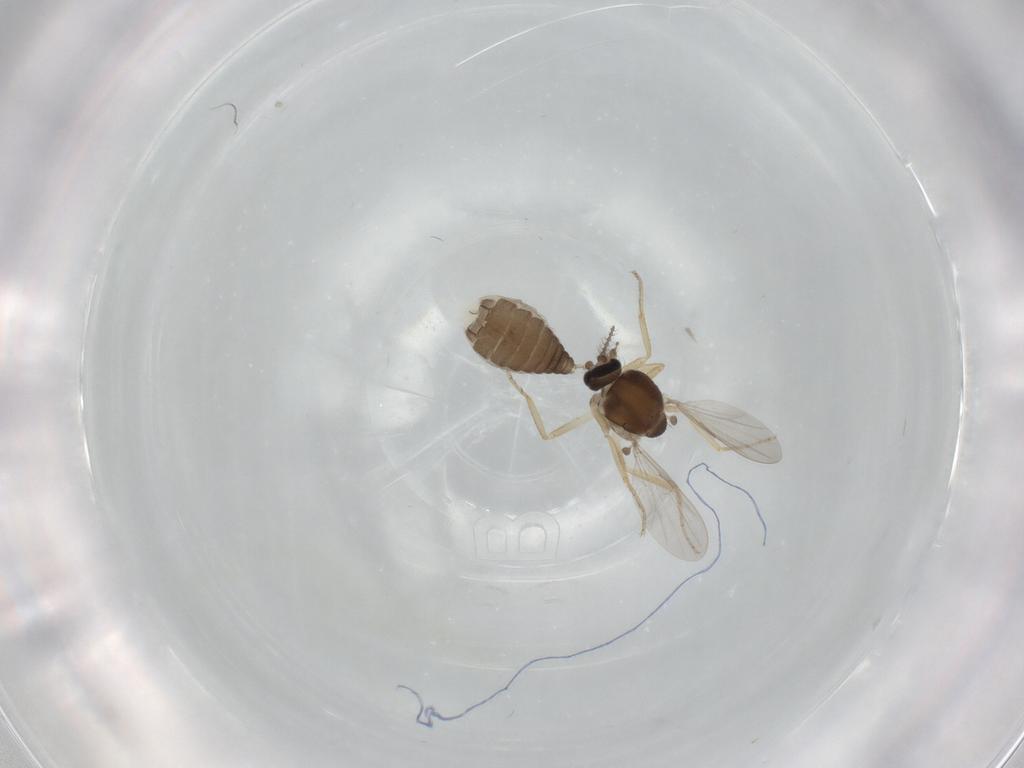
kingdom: Animalia
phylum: Arthropoda
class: Insecta
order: Diptera
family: Ceratopogonidae
